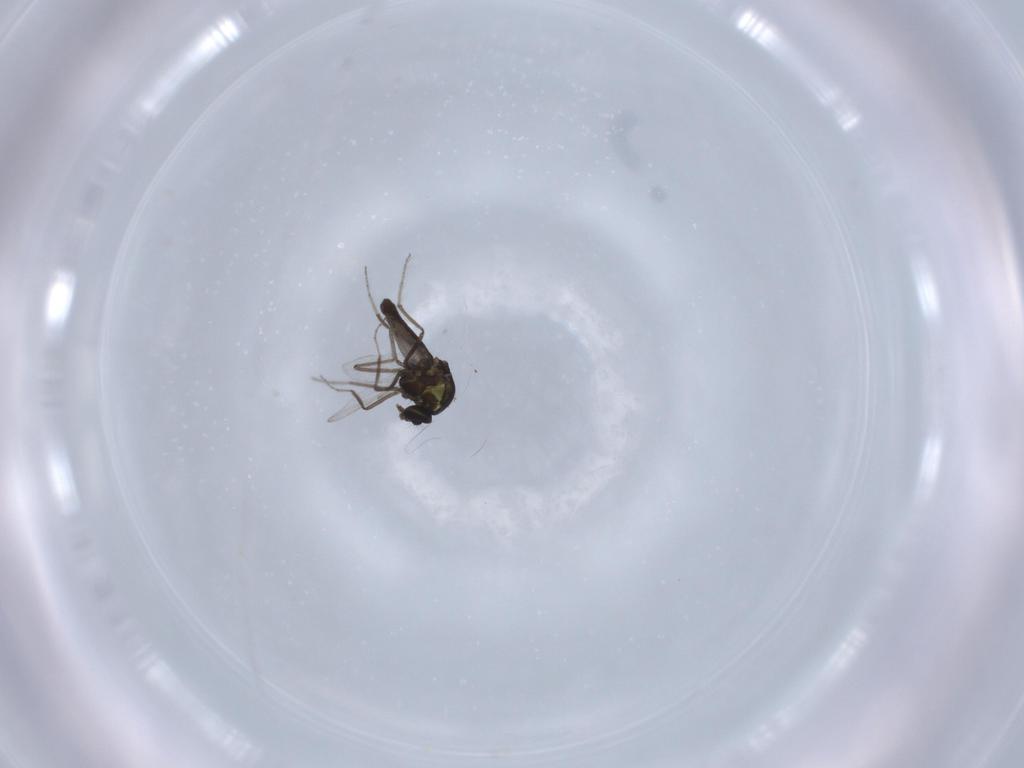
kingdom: Animalia
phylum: Arthropoda
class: Insecta
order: Diptera
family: Ceratopogonidae
